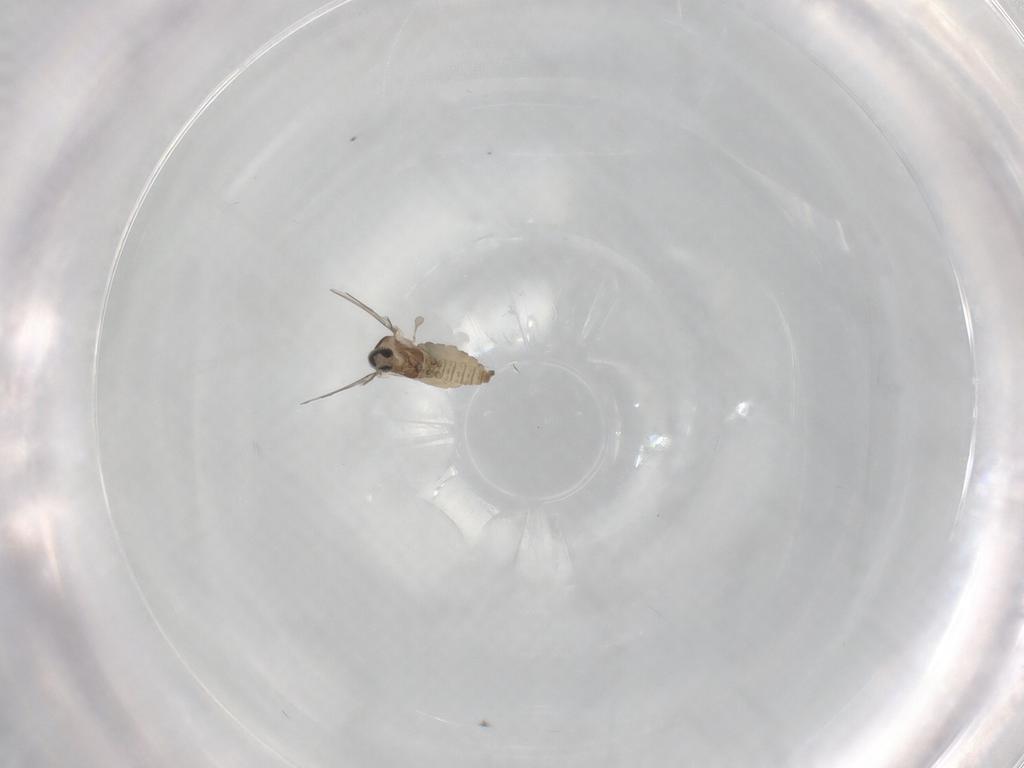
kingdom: Animalia
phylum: Arthropoda
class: Insecta
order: Diptera
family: Cecidomyiidae
